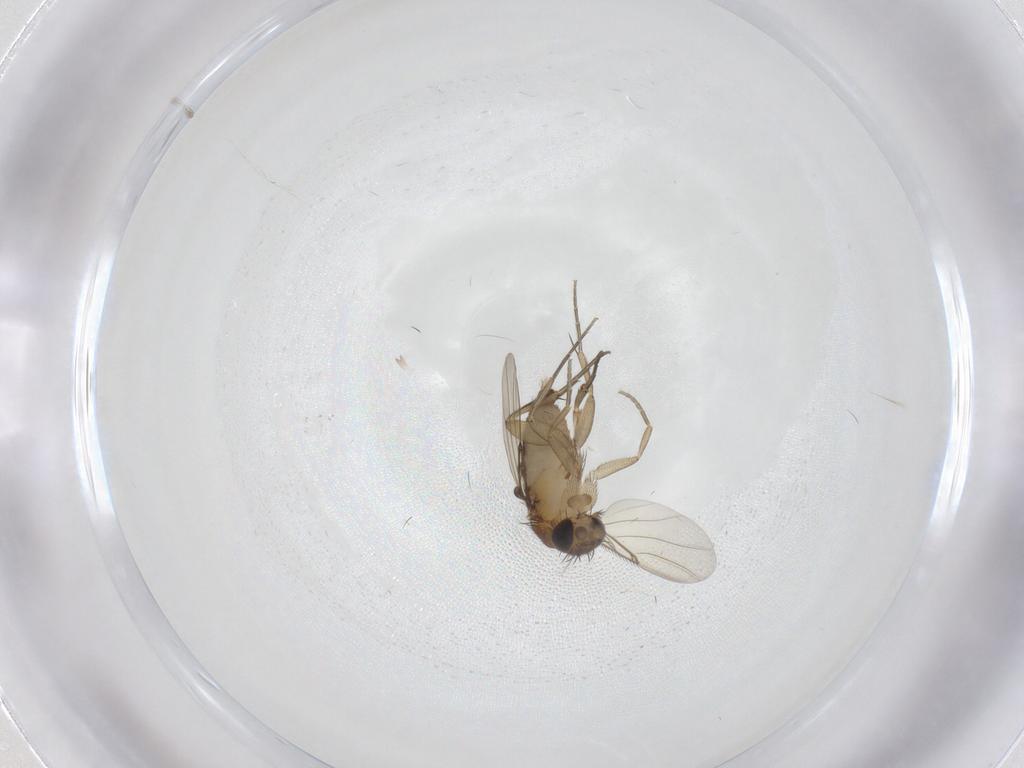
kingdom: Animalia
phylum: Arthropoda
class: Insecta
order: Diptera
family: Phoridae
